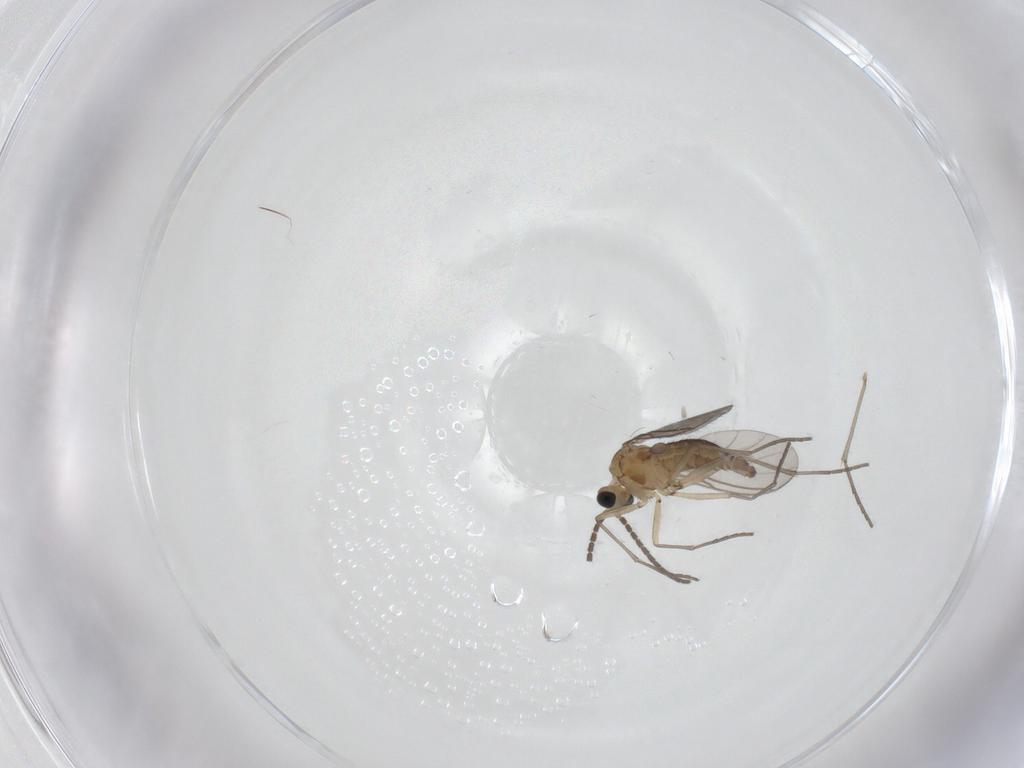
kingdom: Animalia
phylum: Arthropoda
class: Insecta
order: Diptera
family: Sciaridae
